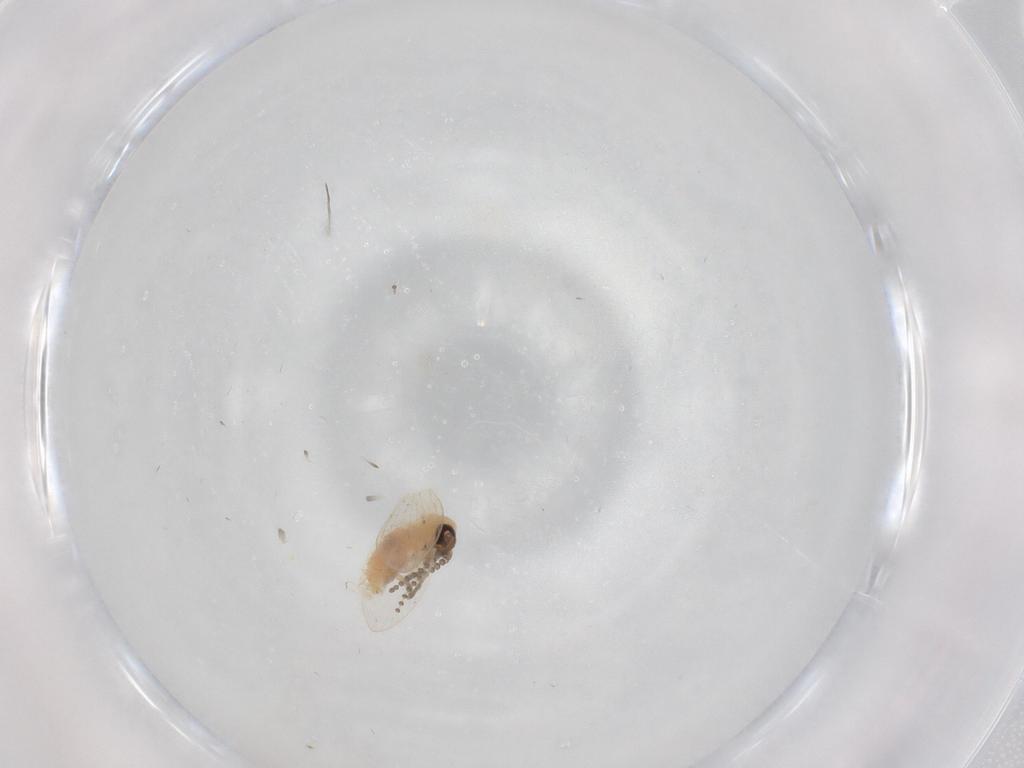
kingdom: Animalia
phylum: Arthropoda
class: Insecta
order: Diptera
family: Psychodidae
